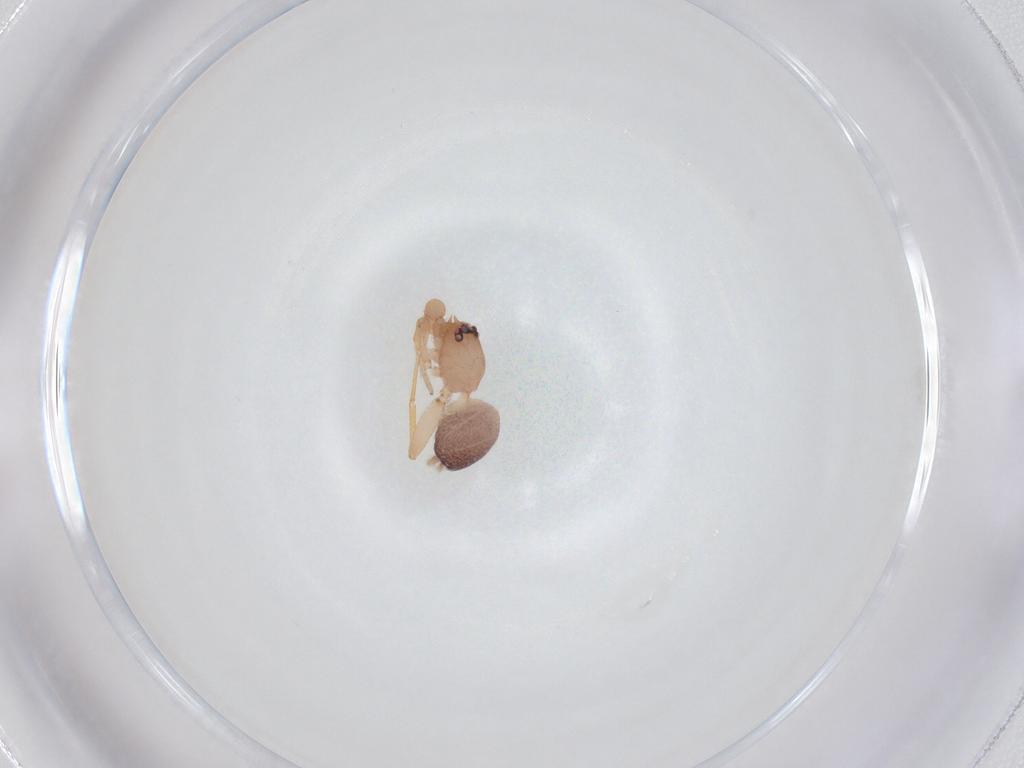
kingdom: Animalia
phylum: Arthropoda
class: Arachnida
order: Araneae
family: Idiopidae
